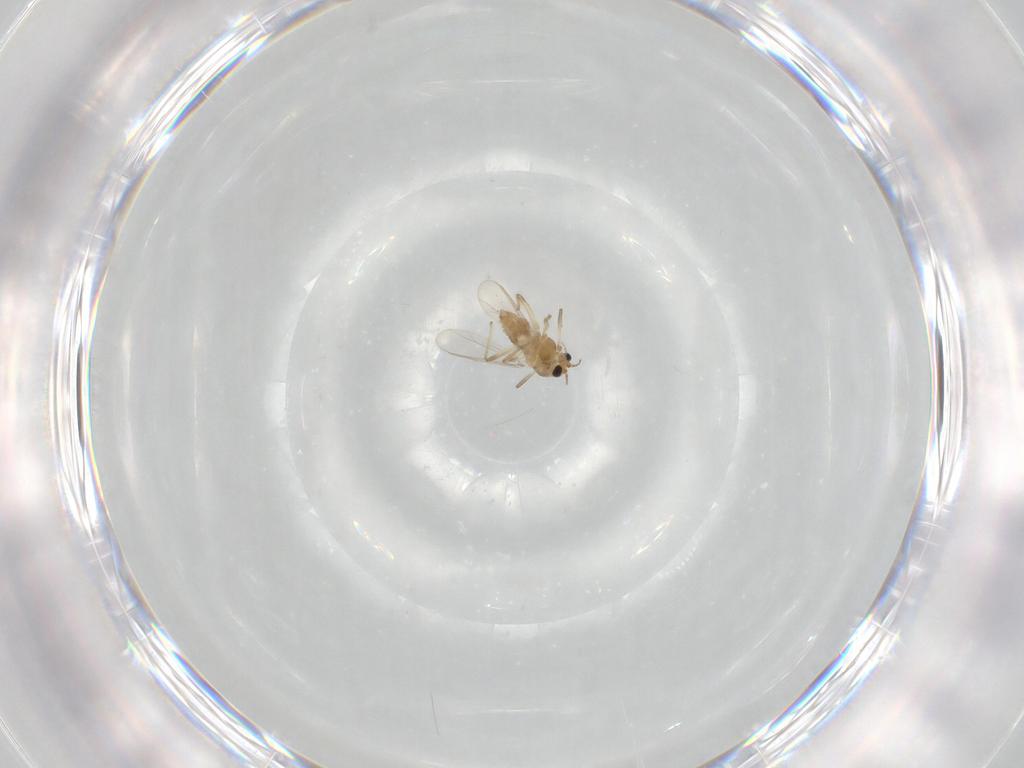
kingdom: Animalia
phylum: Arthropoda
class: Insecta
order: Diptera
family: Chironomidae
